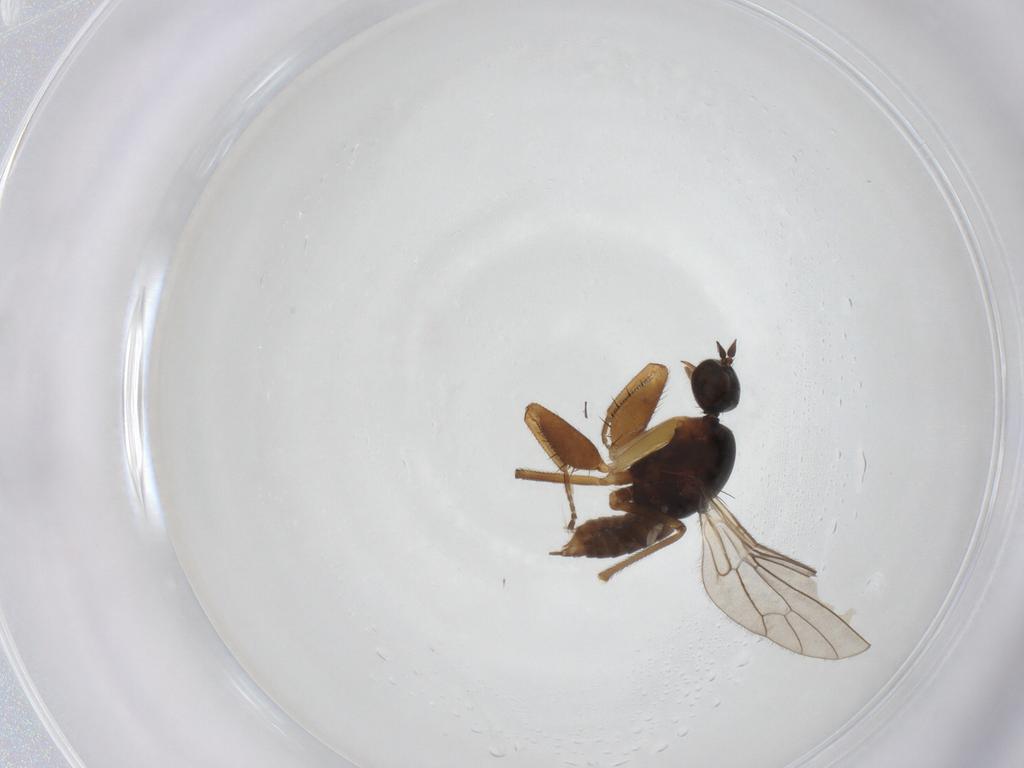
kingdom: Animalia
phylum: Arthropoda
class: Insecta
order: Diptera
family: Empididae
